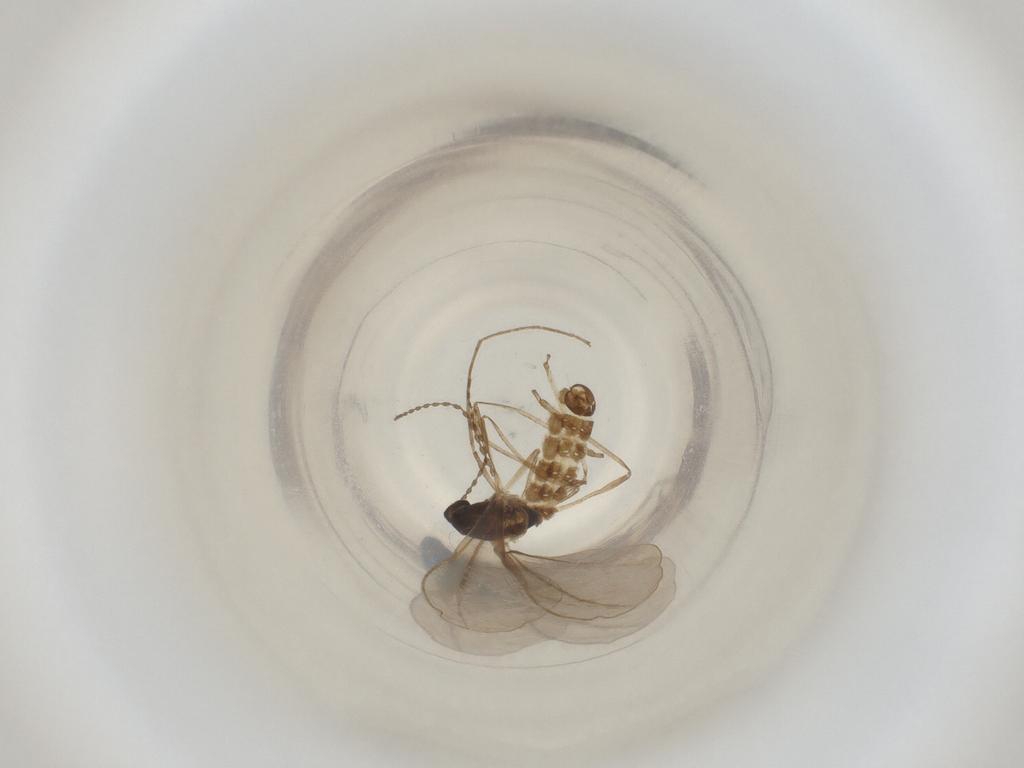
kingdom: Animalia
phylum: Arthropoda
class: Insecta
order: Diptera
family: Cecidomyiidae
